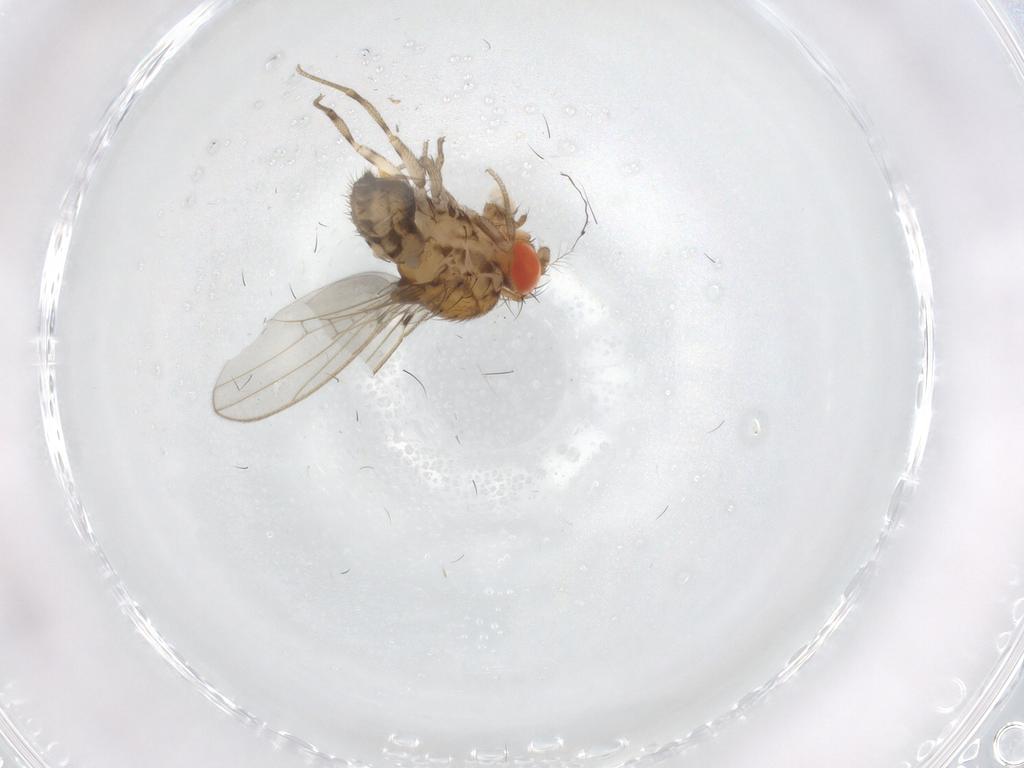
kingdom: Animalia
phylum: Arthropoda
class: Insecta
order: Diptera
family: Drosophilidae
